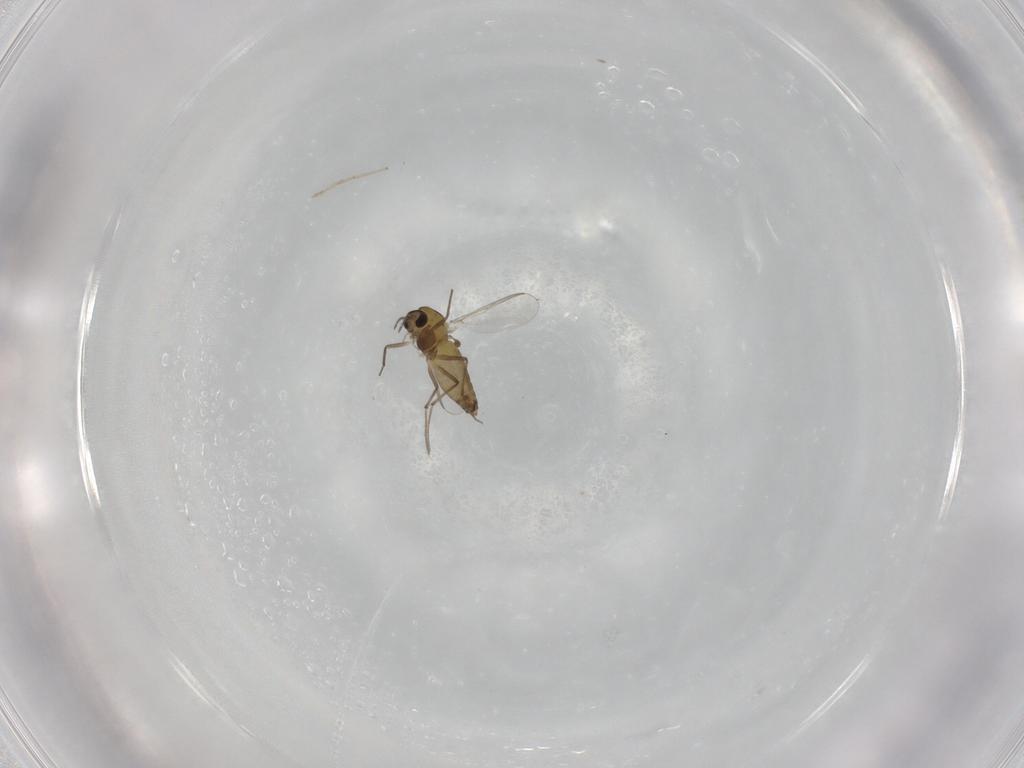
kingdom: Animalia
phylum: Arthropoda
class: Insecta
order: Diptera
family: Chironomidae
